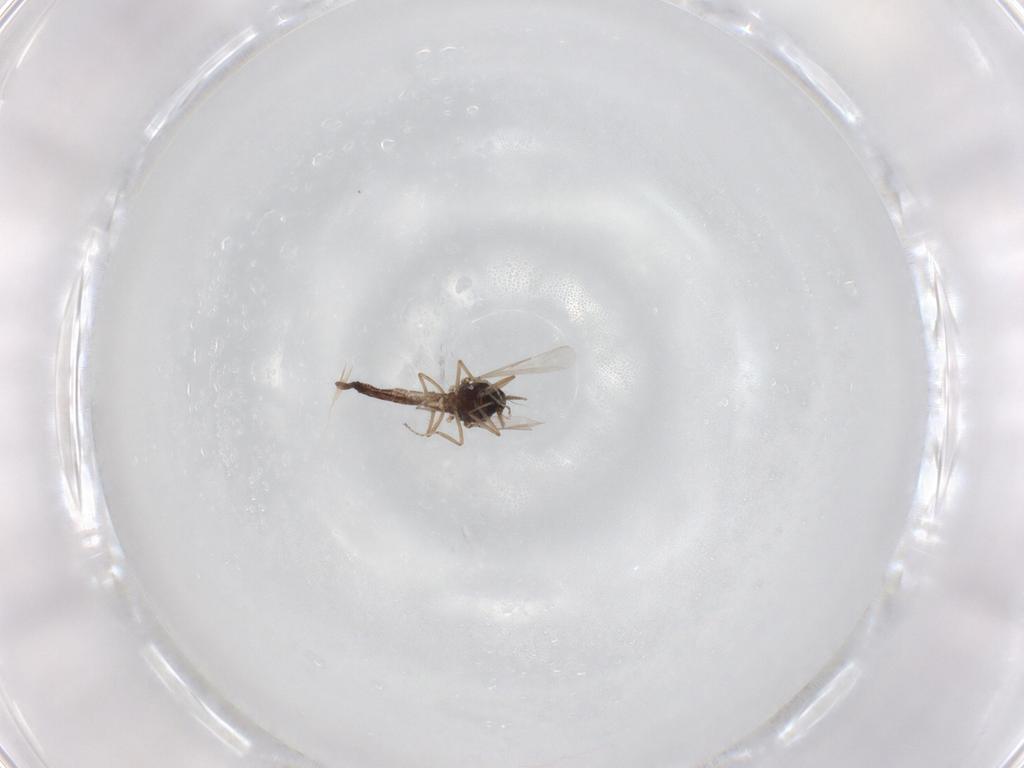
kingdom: Animalia
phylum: Arthropoda
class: Insecta
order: Diptera
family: Ceratopogonidae
